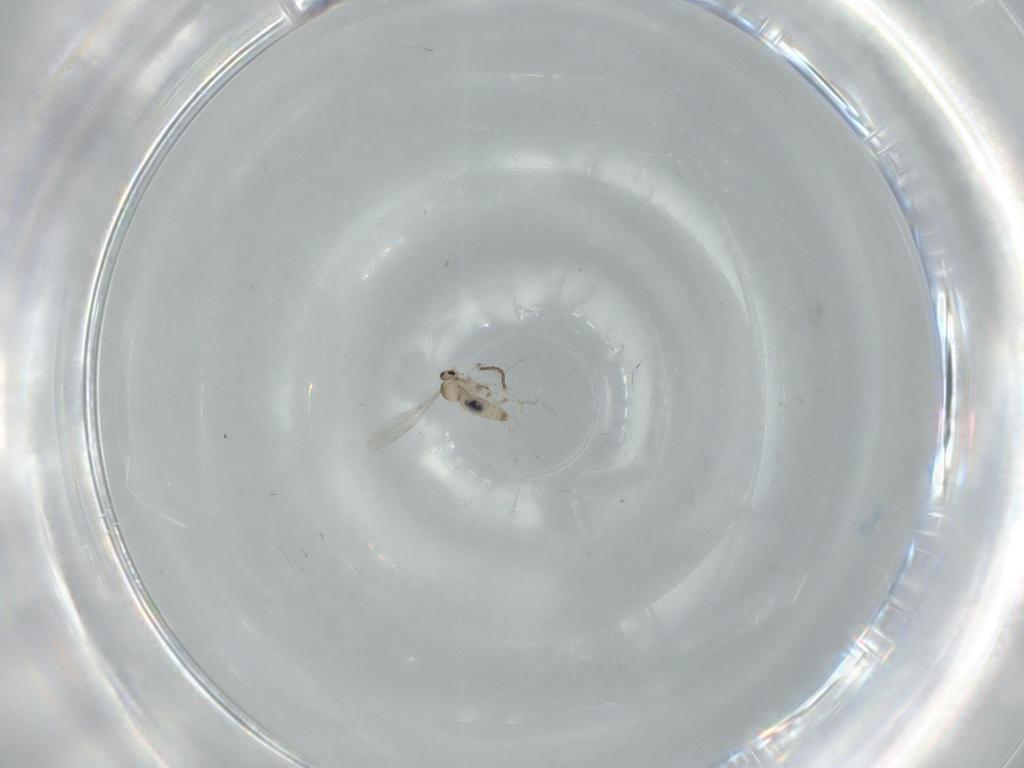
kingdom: Animalia
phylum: Arthropoda
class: Insecta
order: Diptera
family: Cecidomyiidae
